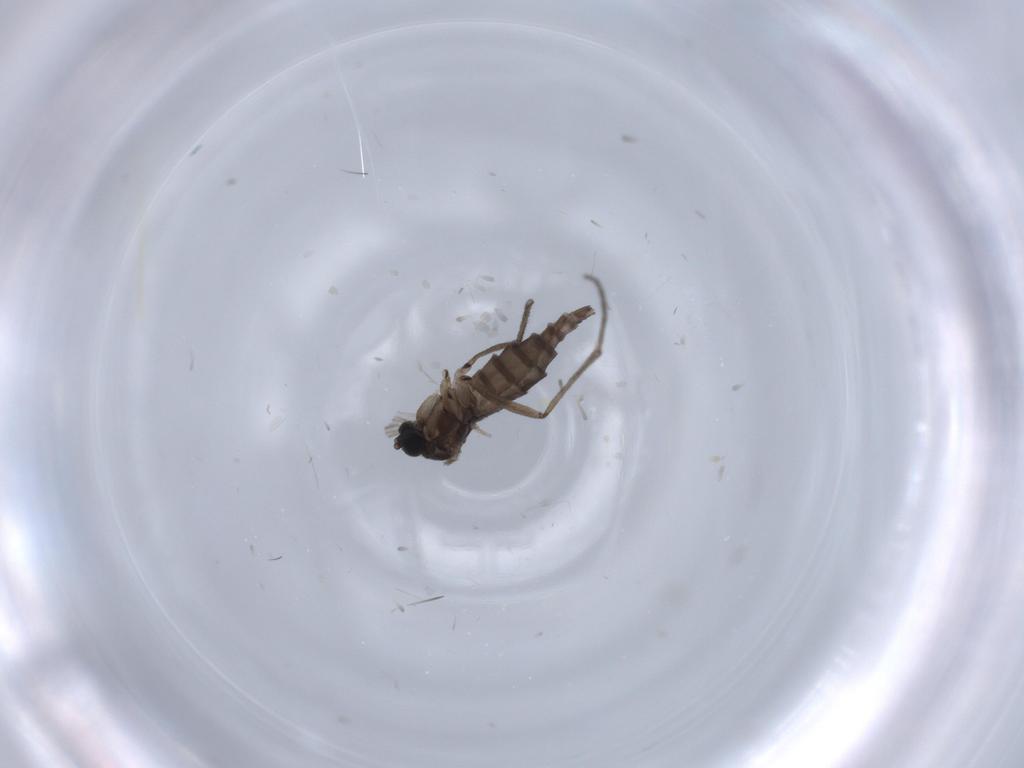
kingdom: Animalia
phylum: Arthropoda
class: Insecta
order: Diptera
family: Sciaridae
